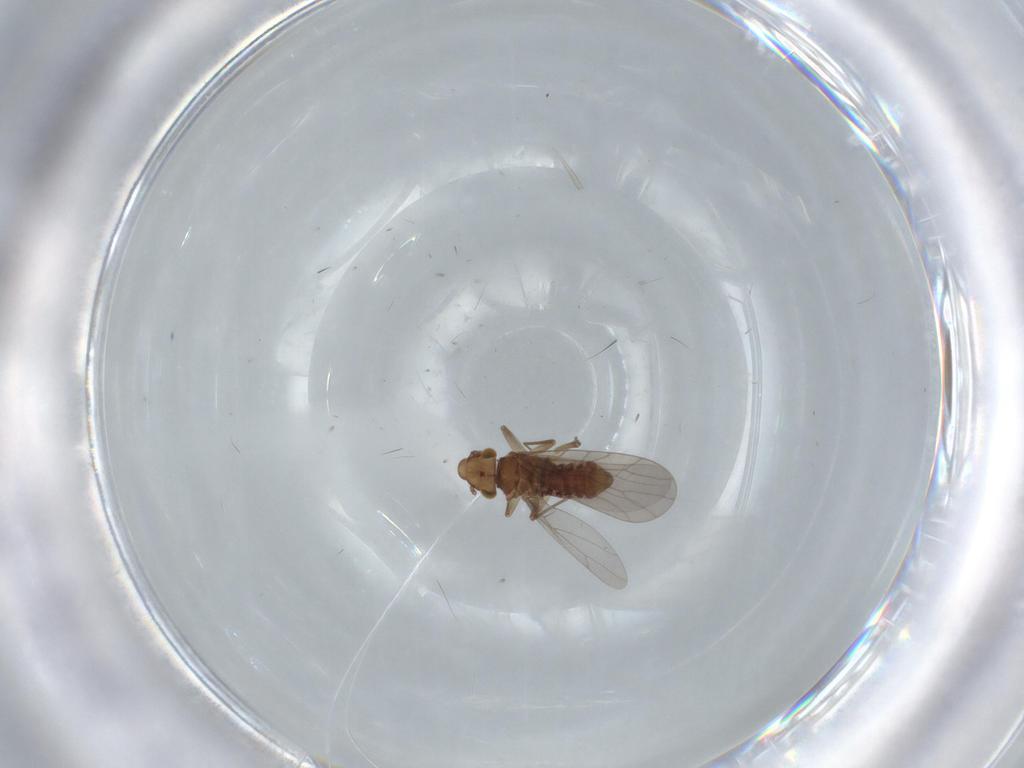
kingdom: Animalia
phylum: Arthropoda
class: Insecta
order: Psocodea
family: Lepidopsocidae
